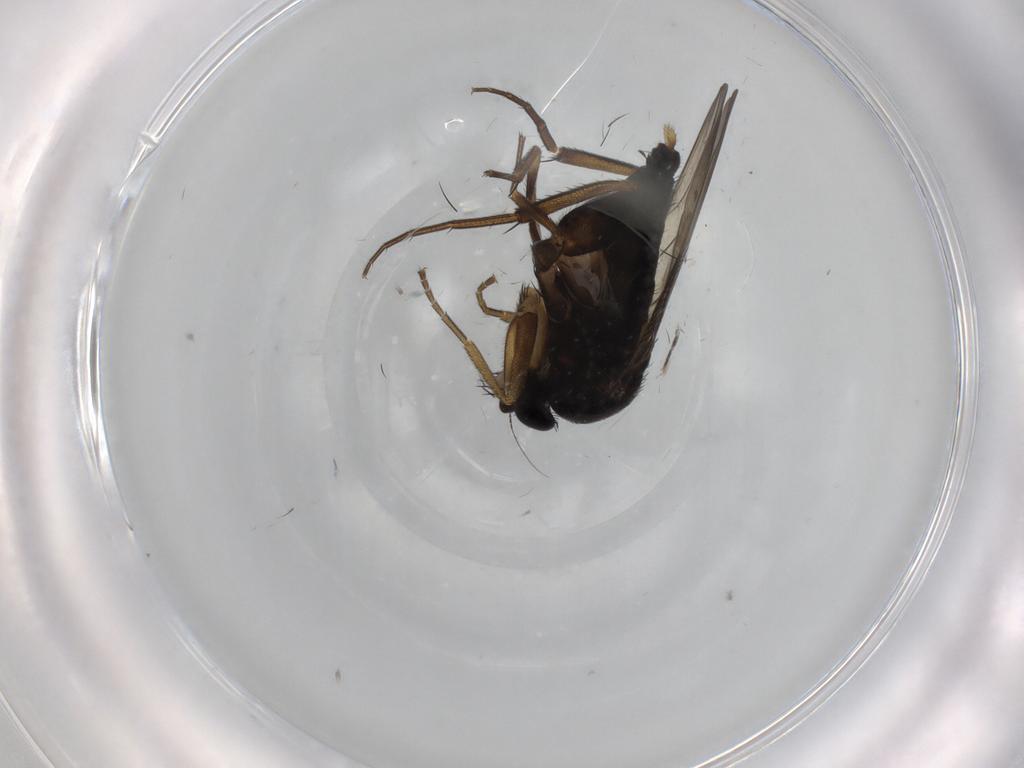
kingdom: Animalia
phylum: Arthropoda
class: Insecta
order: Diptera
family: Phoridae
